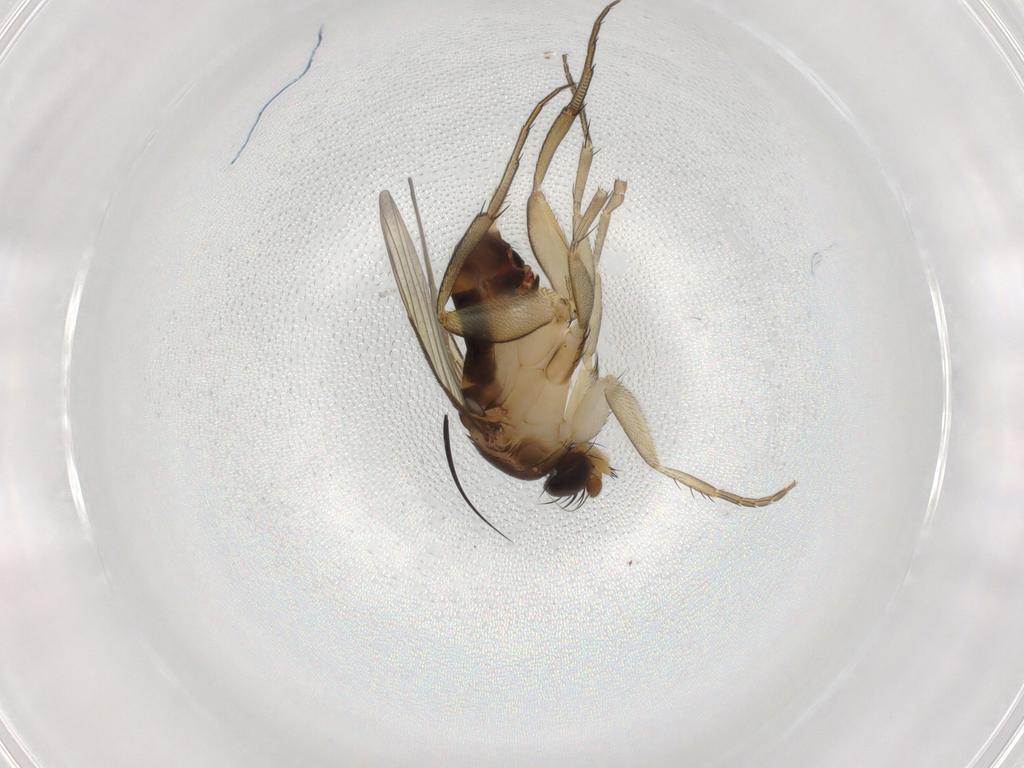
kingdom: Animalia
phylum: Arthropoda
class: Insecta
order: Diptera
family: Phoridae
